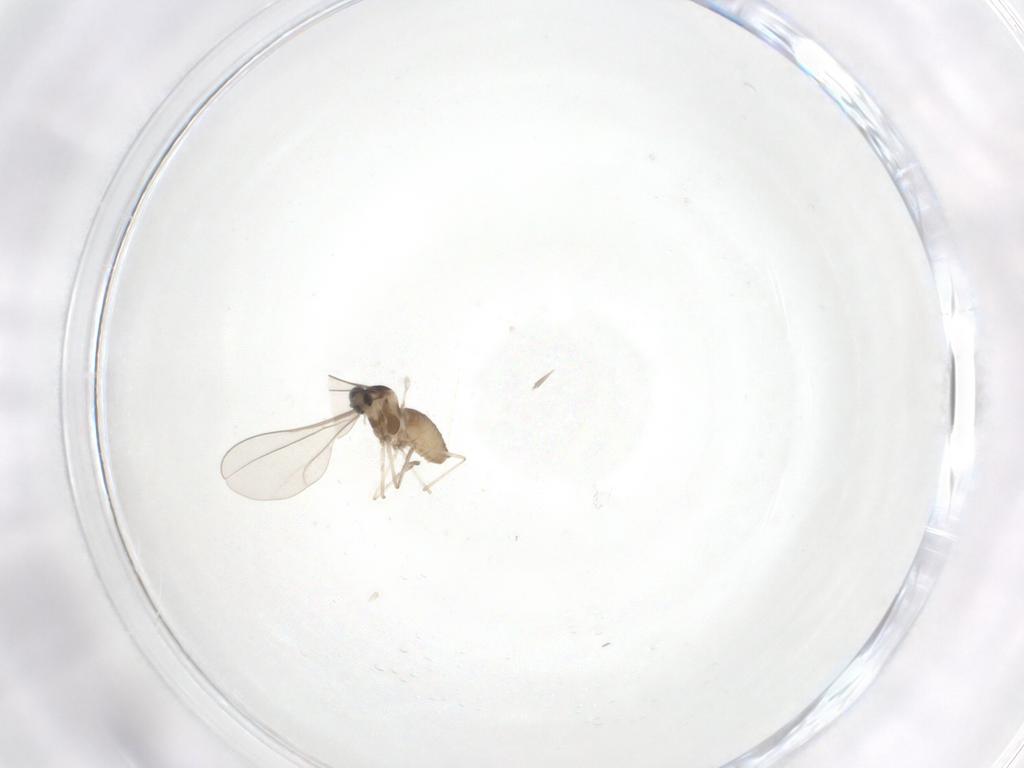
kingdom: Animalia
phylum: Arthropoda
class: Insecta
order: Diptera
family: Cecidomyiidae
